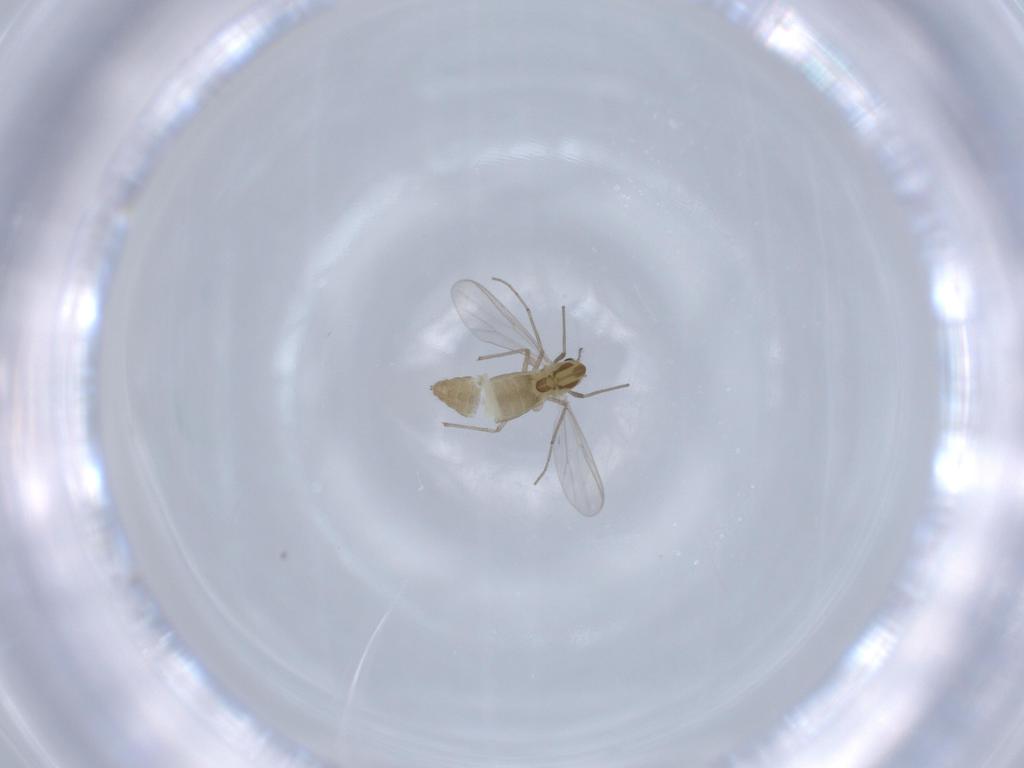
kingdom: Animalia
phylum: Arthropoda
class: Insecta
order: Diptera
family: Chironomidae
